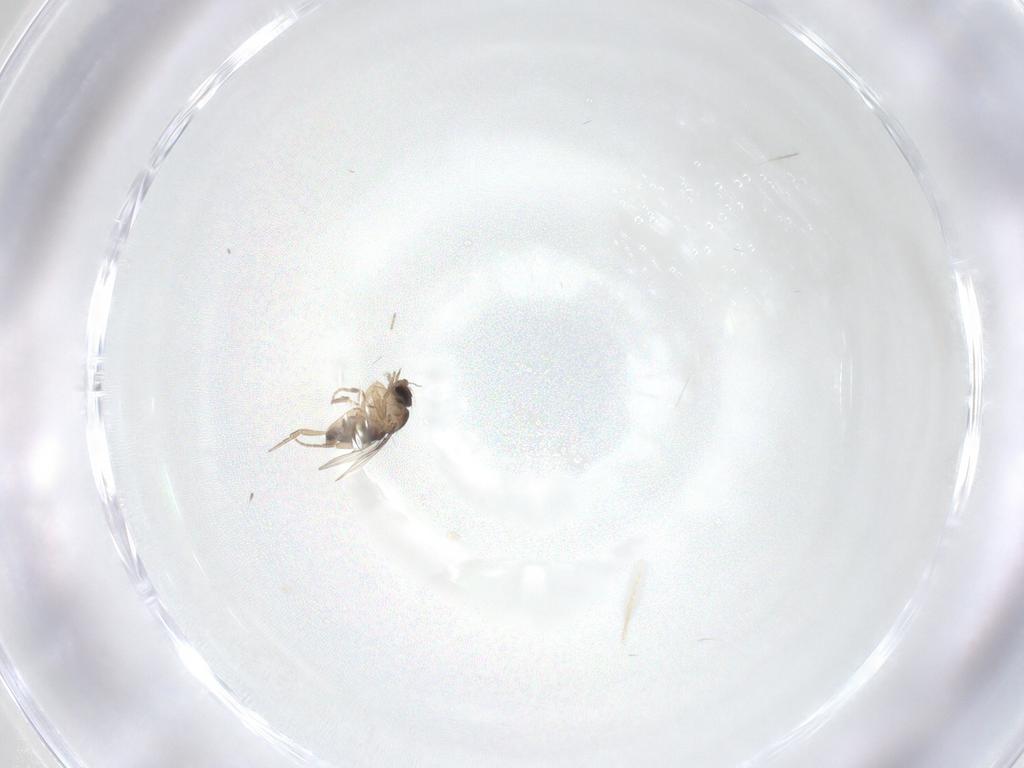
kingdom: Animalia
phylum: Arthropoda
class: Insecta
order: Diptera
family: Phoridae
